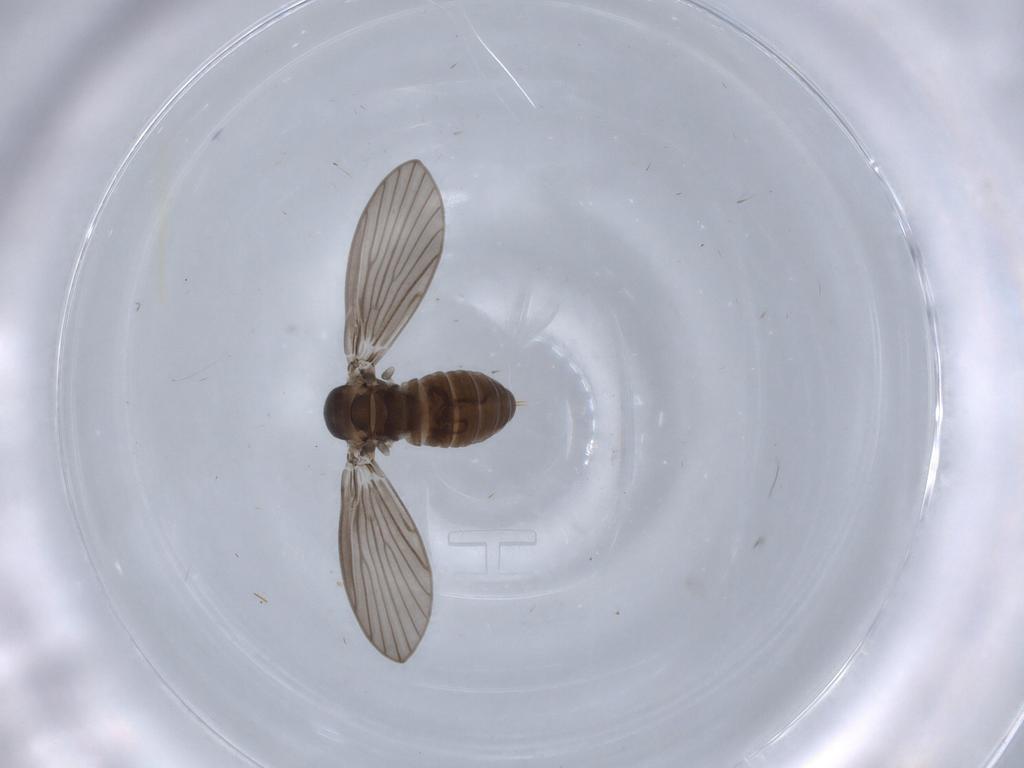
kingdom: Animalia
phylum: Arthropoda
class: Insecta
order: Diptera
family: Psychodidae
